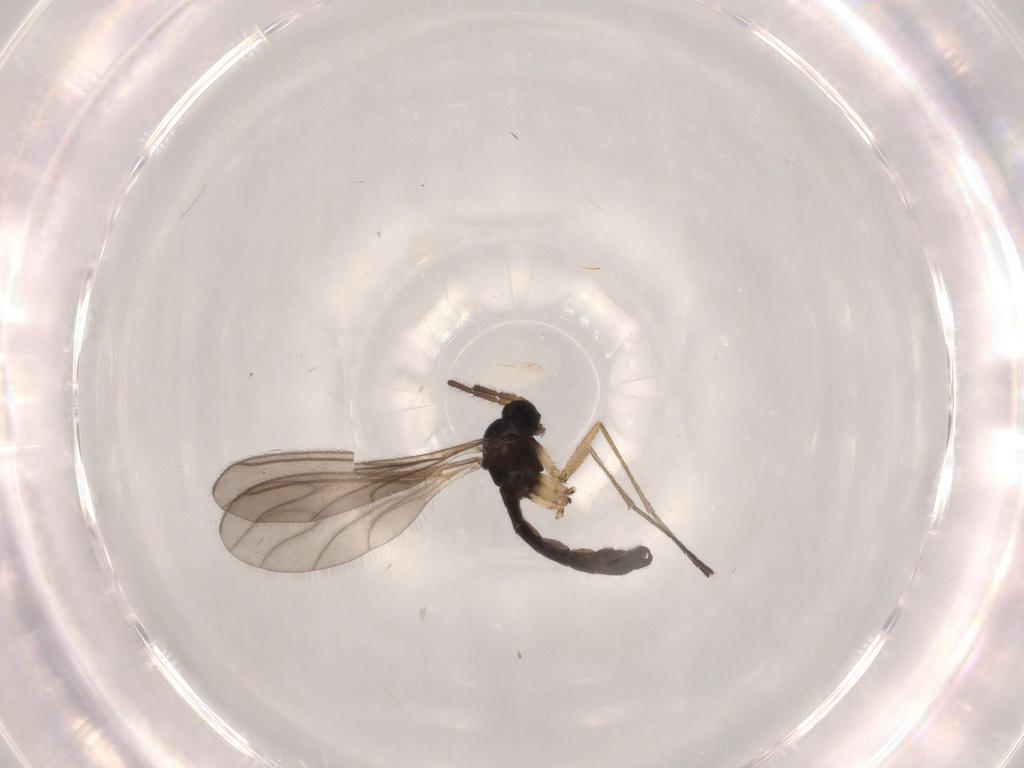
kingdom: Animalia
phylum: Arthropoda
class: Insecta
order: Diptera
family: Sciaridae
